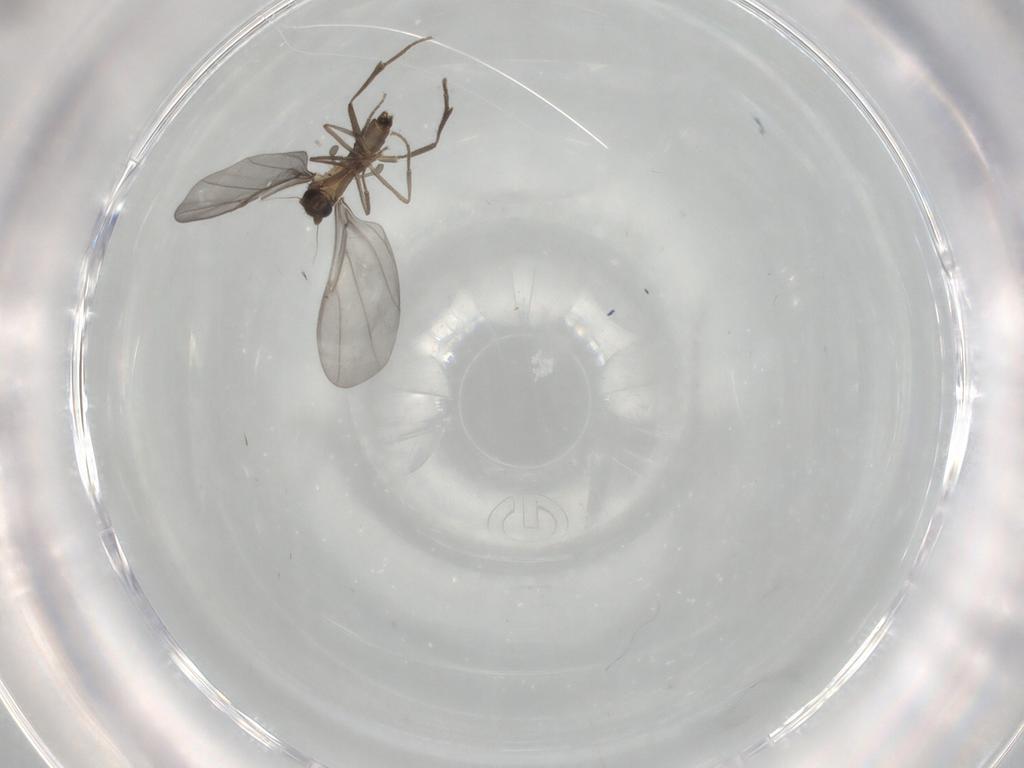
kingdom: Animalia
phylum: Arthropoda
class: Insecta
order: Diptera
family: Phoridae
